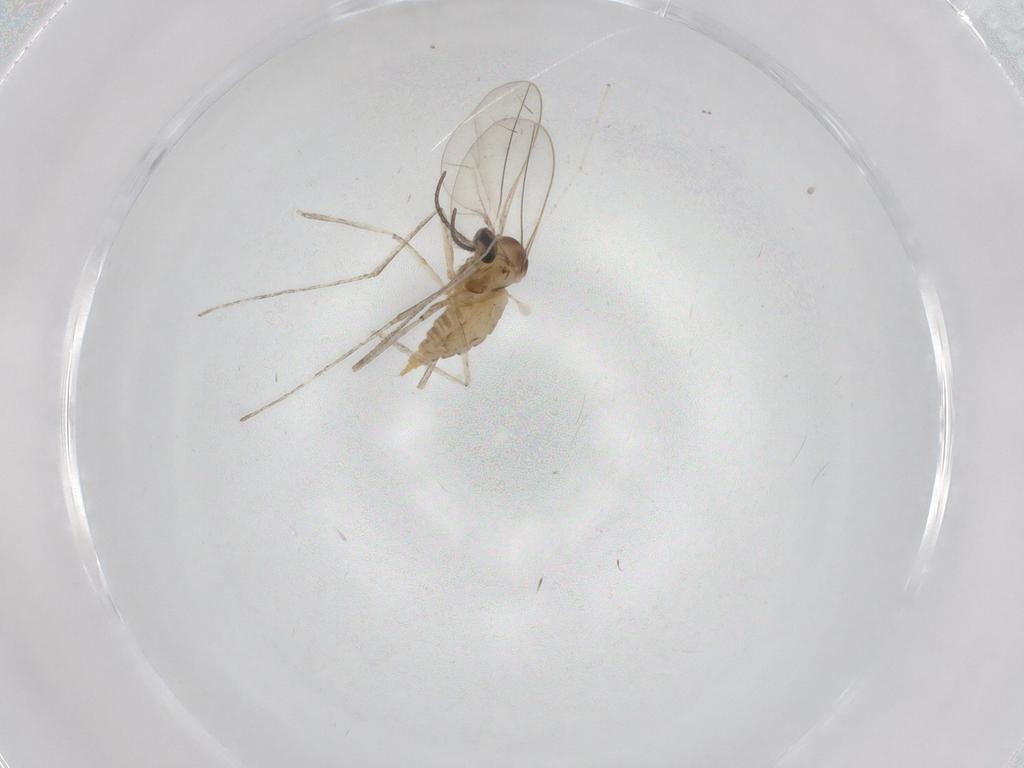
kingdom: Animalia
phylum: Arthropoda
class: Insecta
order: Diptera
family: Cecidomyiidae
